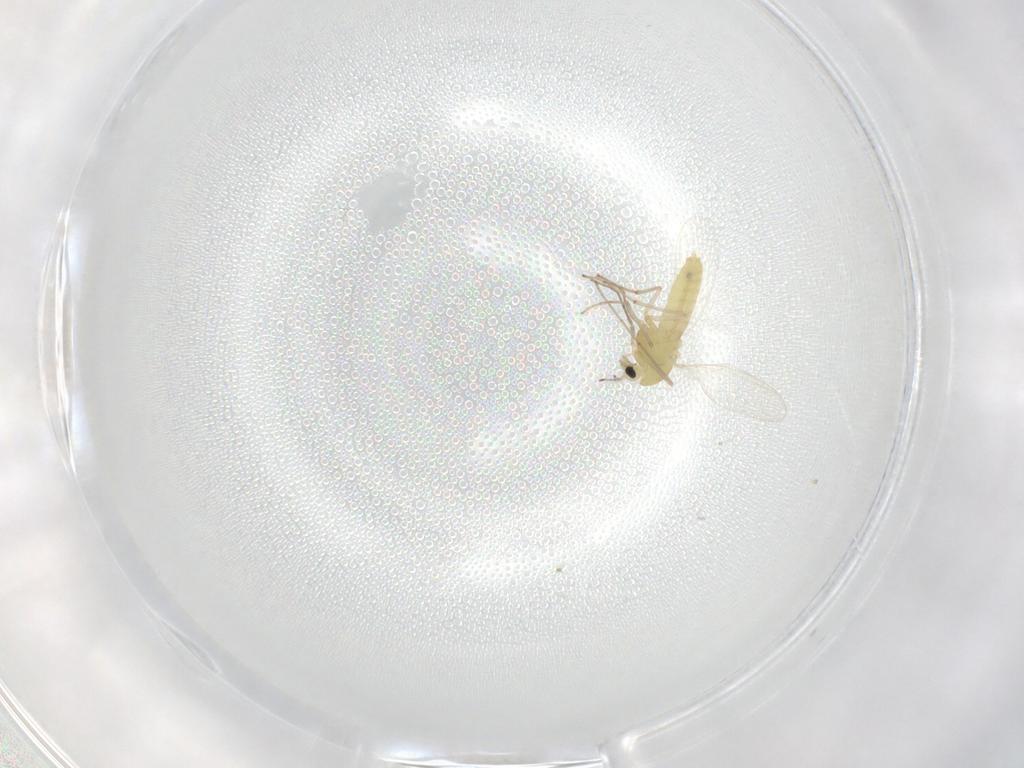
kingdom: Animalia
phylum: Arthropoda
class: Insecta
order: Diptera
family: Chironomidae
